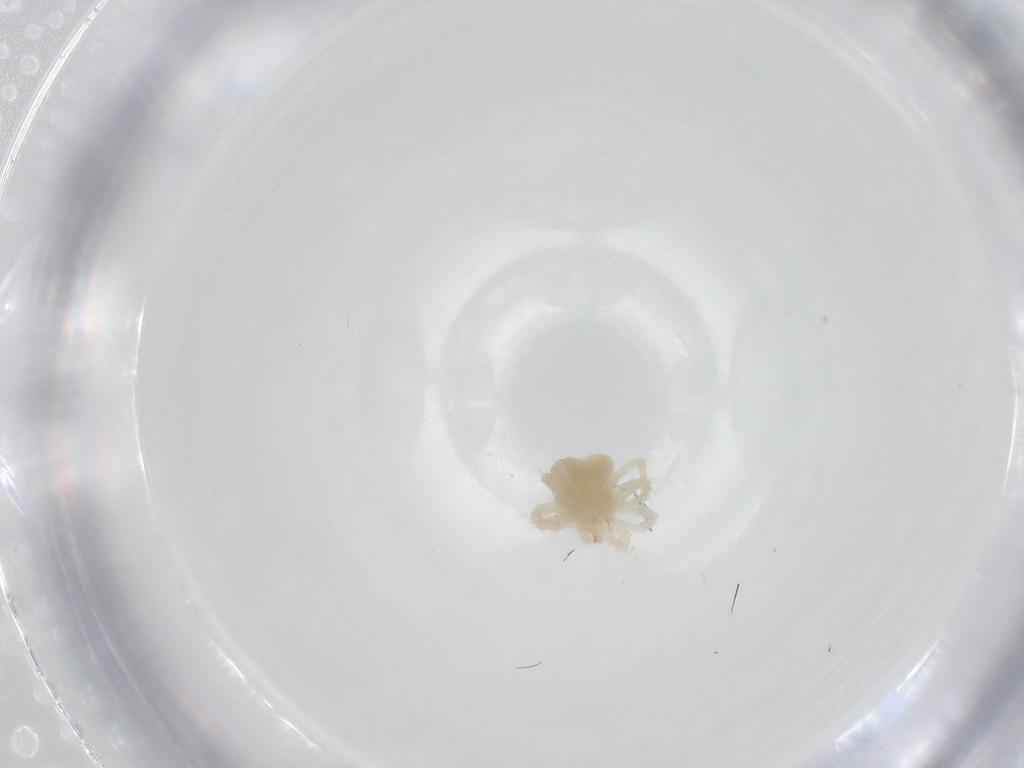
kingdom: Animalia
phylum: Arthropoda
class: Arachnida
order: Trombidiformes
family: Anystidae
